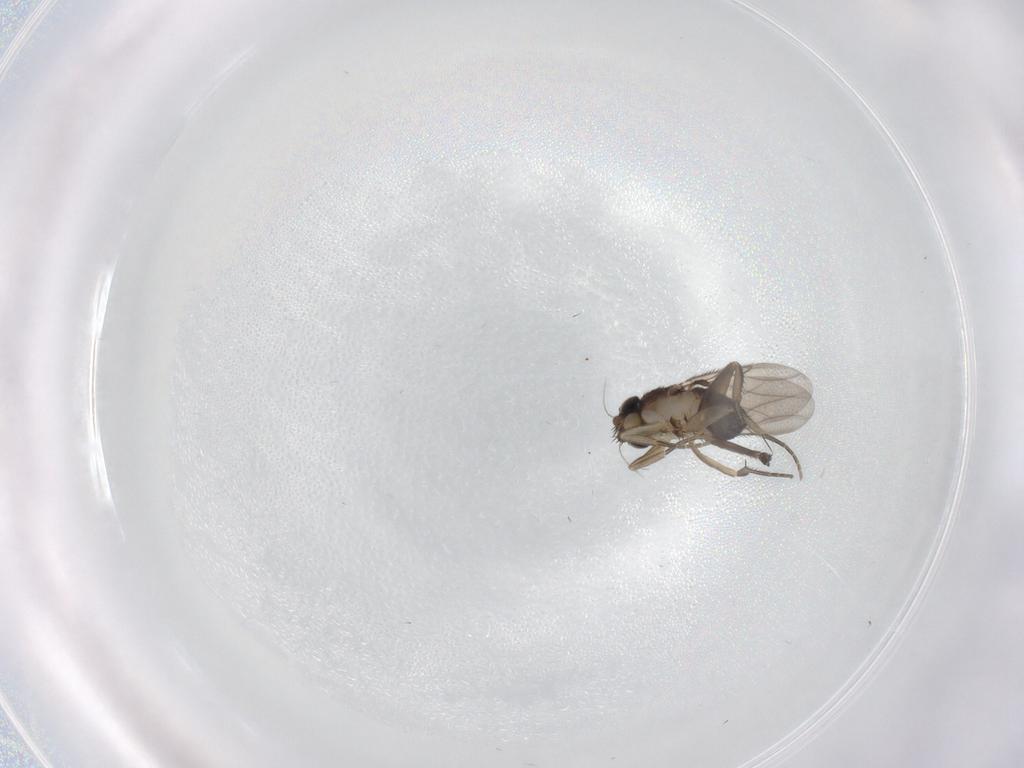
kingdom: Animalia
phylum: Arthropoda
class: Insecta
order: Diptera
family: Phoridae
